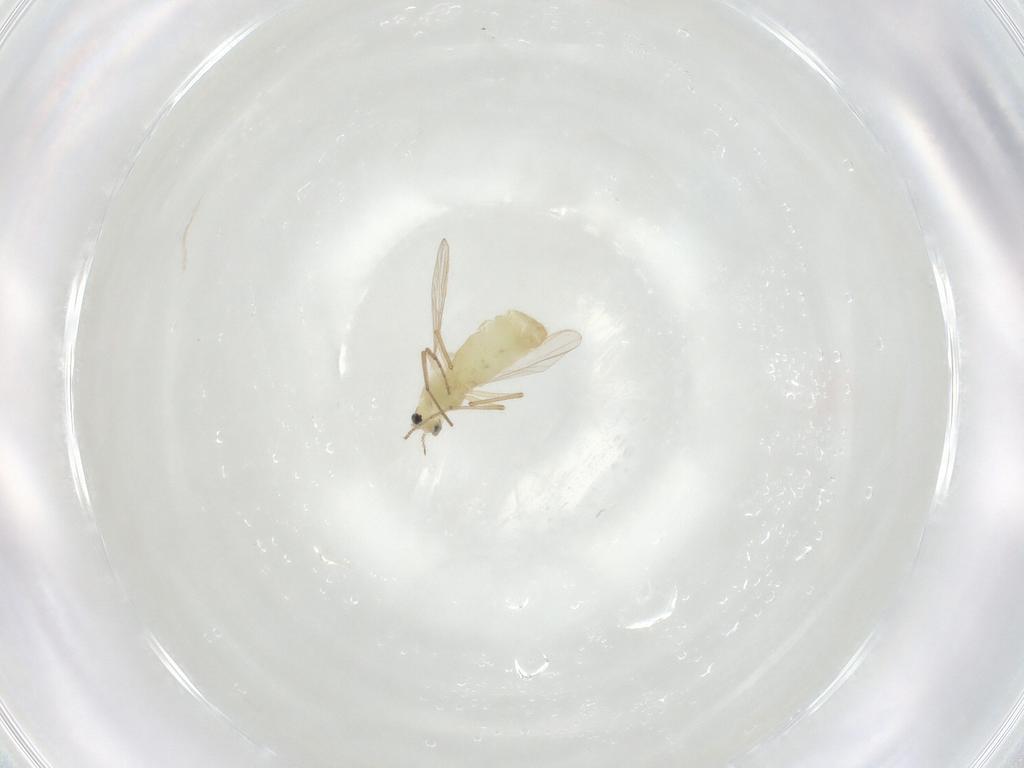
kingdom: Animalia
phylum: Arthropoda
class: Insecta
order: Diptera
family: Chironomidae
